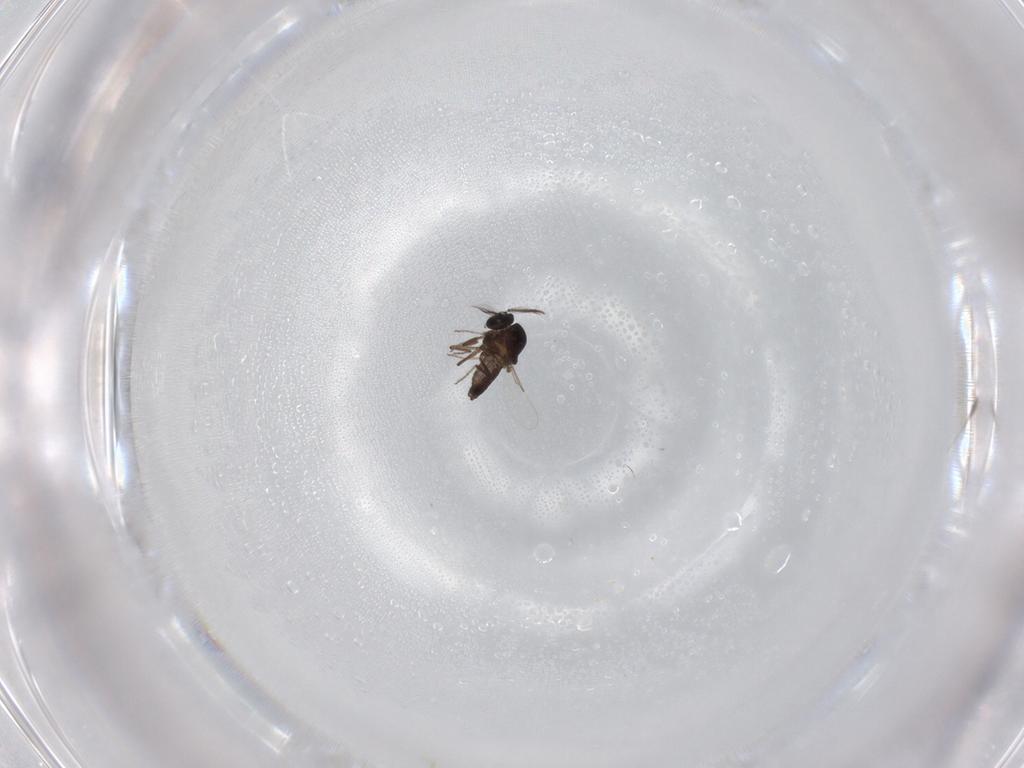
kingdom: Animalia
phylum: Arthropoda
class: Insecta
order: Diptera
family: Ceratopogonidae
